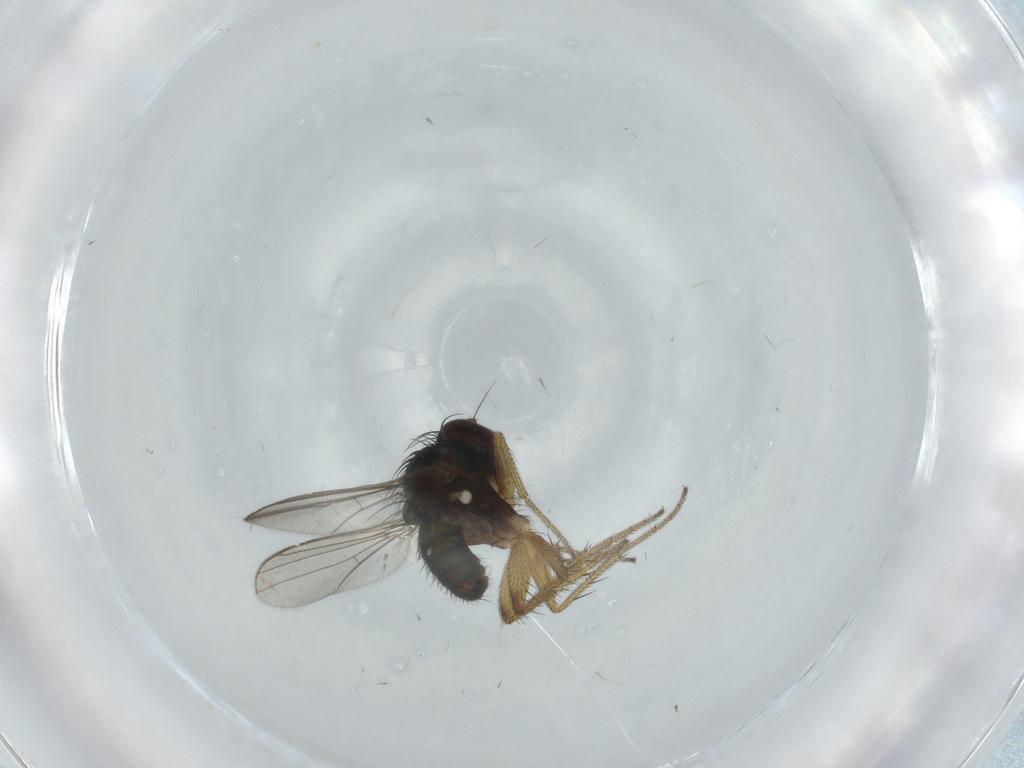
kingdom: Animalia
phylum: Arthropoda
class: Insecta
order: Diptera
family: Dolichopodidae
